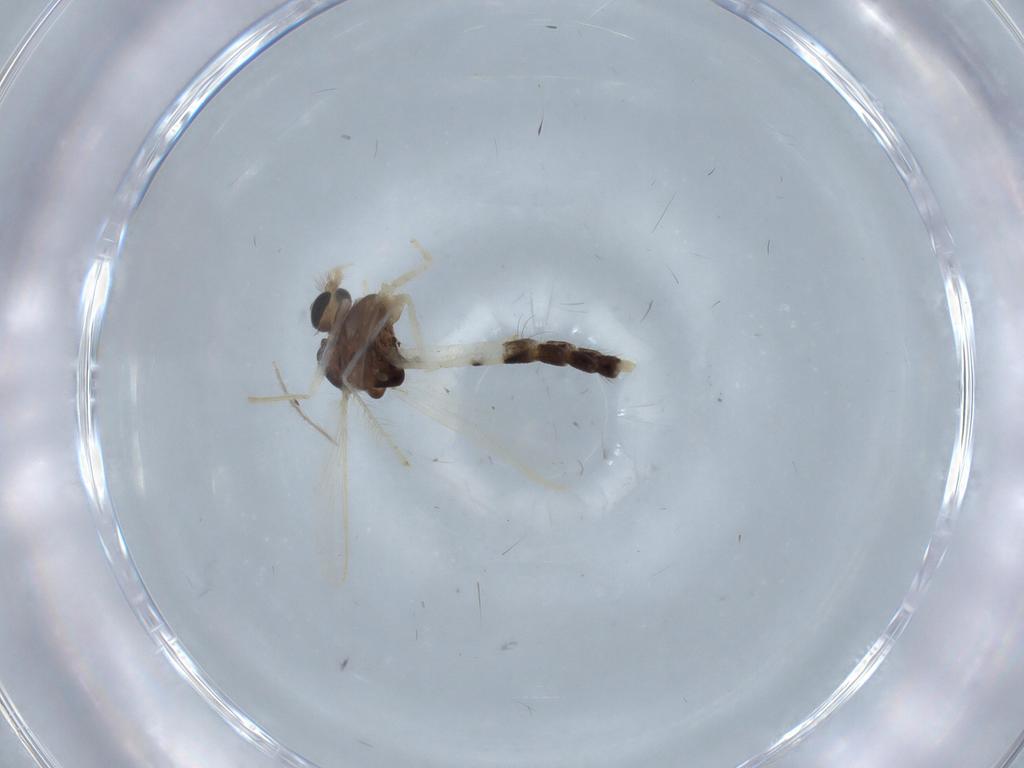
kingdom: Animalia
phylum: Arthropoda
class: Insecta
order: Diptera
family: Chironomidae
